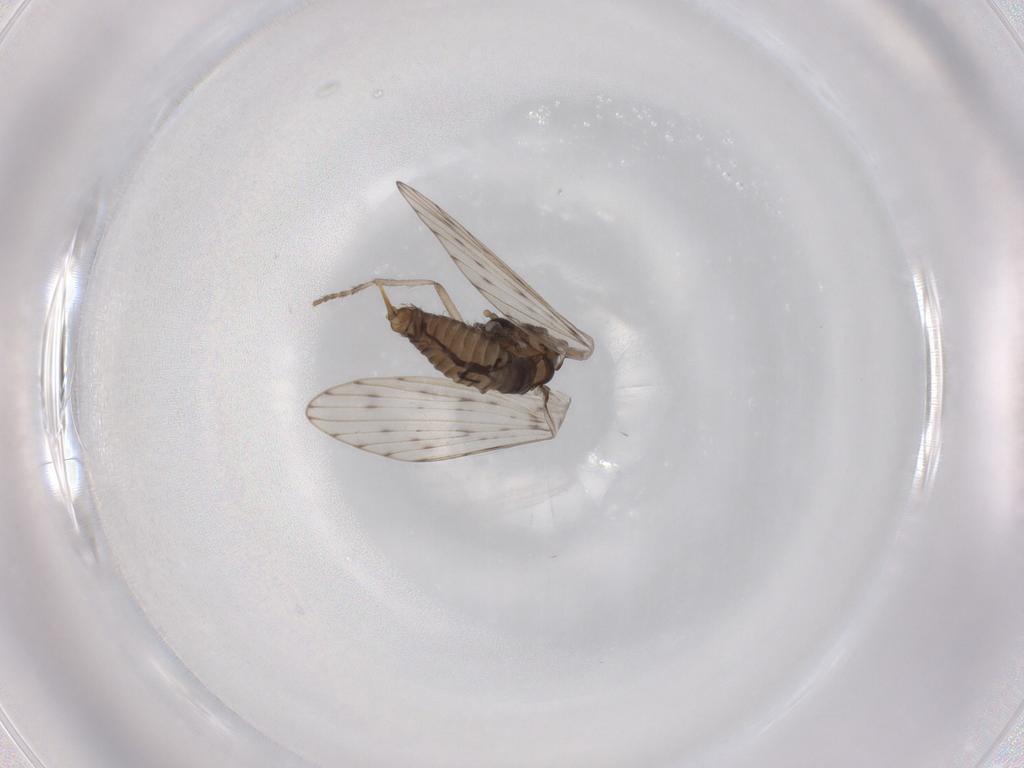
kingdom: Animalia
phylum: Arthropoda
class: Insecta
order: Diptera
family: Psychodidae
